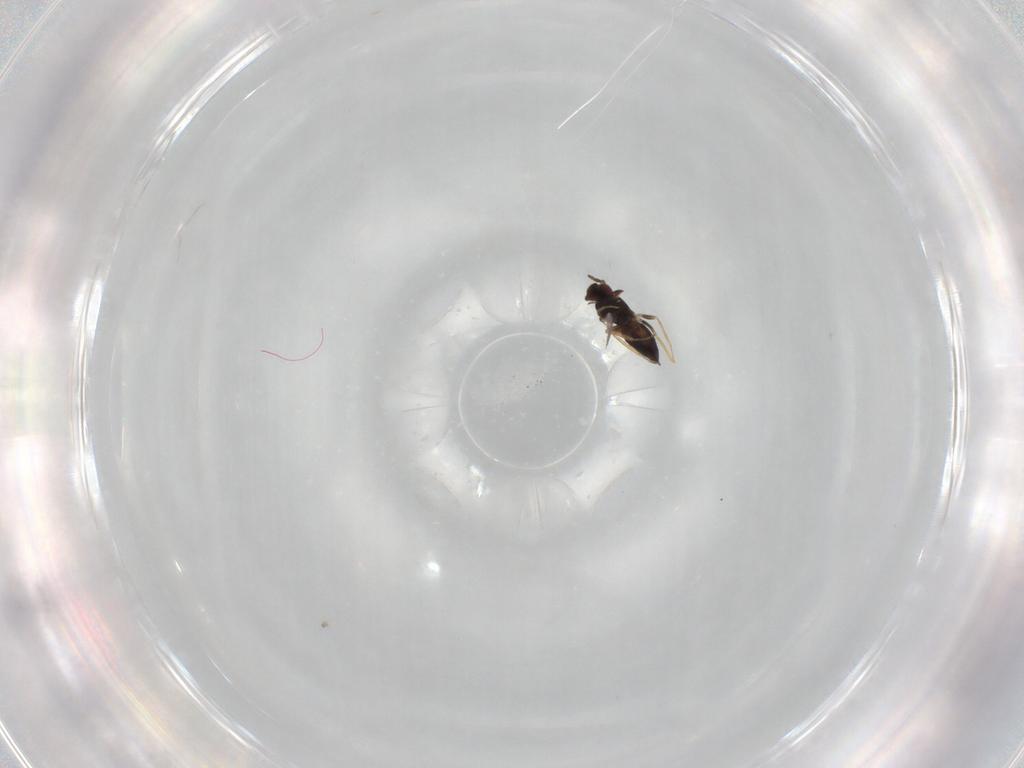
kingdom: Animalia
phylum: Arthropoda
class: Insecta
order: Hymenoptera
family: Eulophidae
